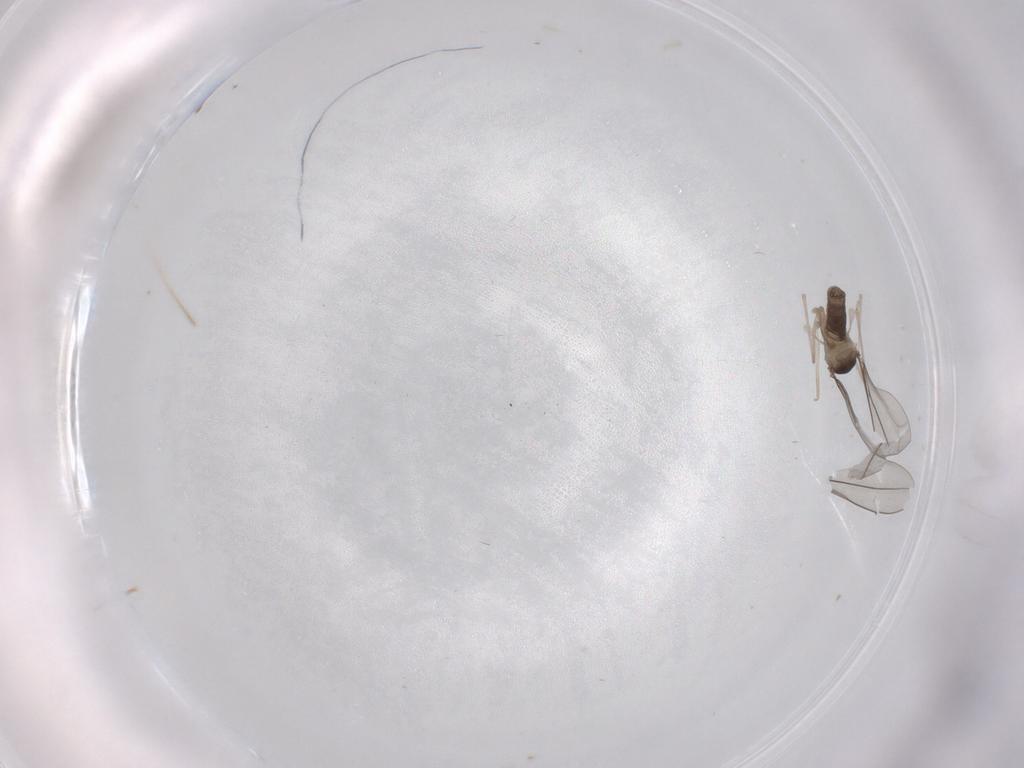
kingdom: Animalia
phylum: Arthropoda
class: Insecta
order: Diptera
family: Cecidomyiidae
